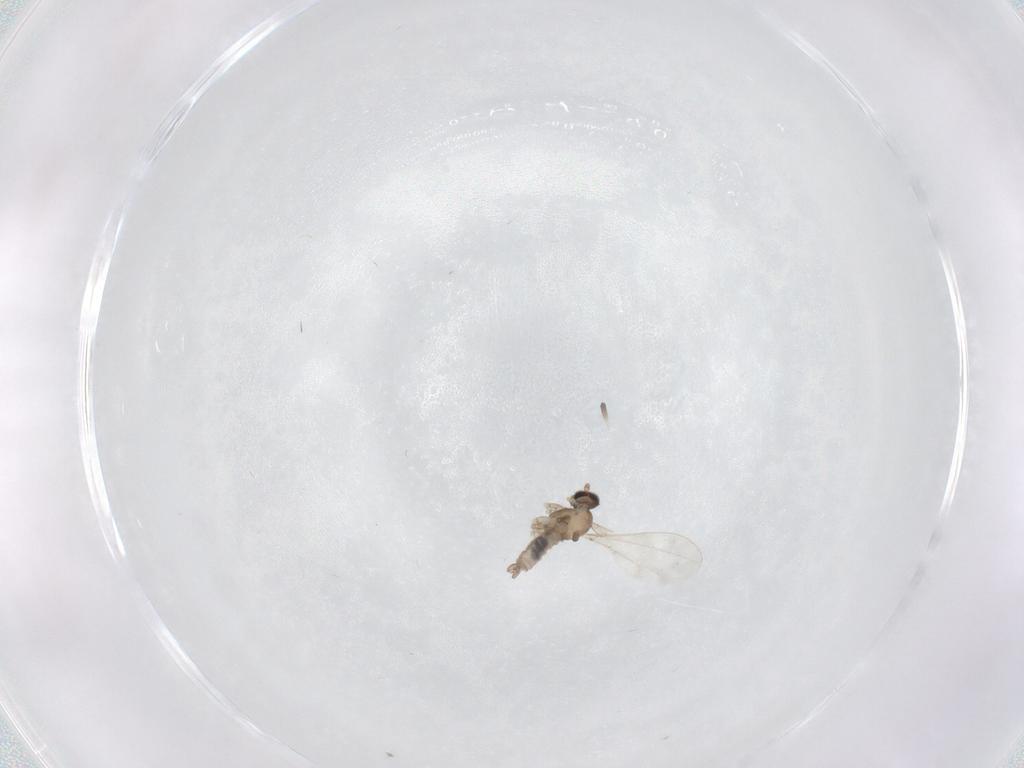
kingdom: Animalia
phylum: Arthropoda
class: Insecta
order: Diptera
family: Cecidomyiidae
